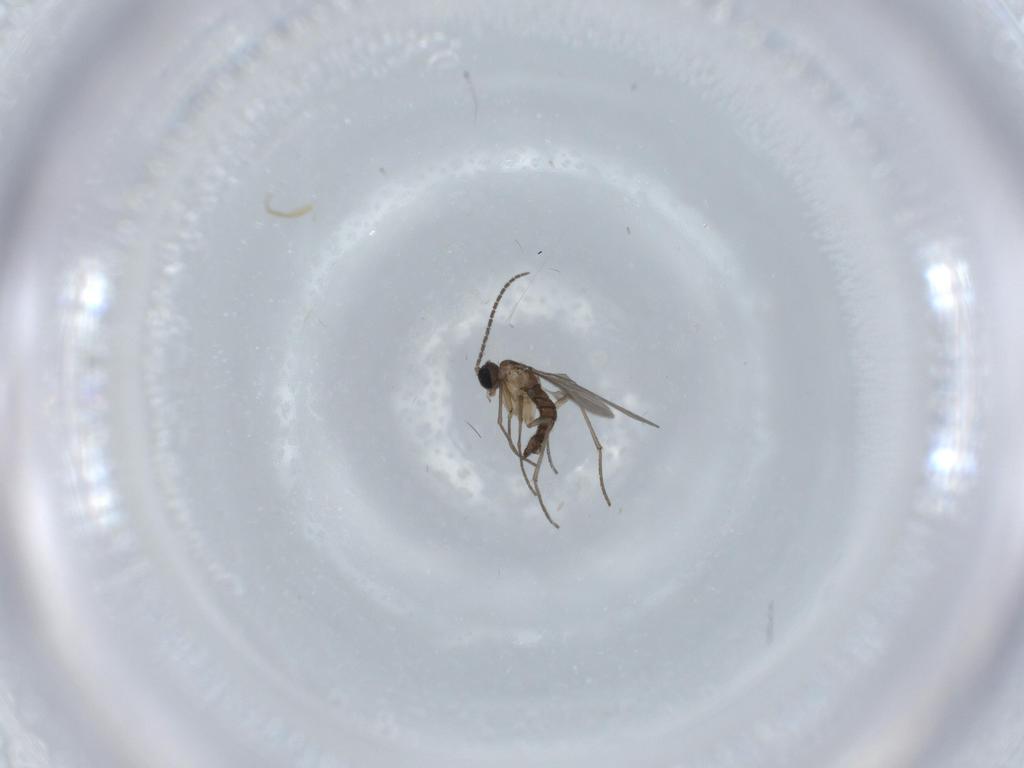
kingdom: Animalia
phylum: Arthropoda
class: Insecta
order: Diptera
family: Sciaridae
